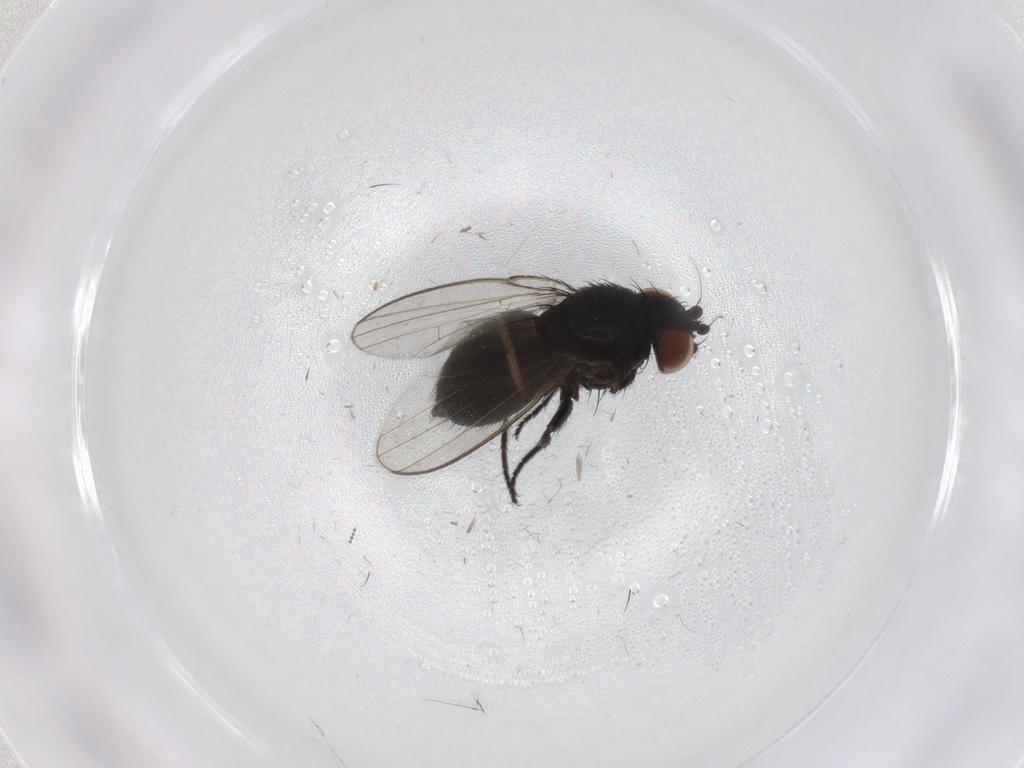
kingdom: Animalia
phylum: Arthropoda
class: Insecta
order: Diptera
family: Milichiidae
